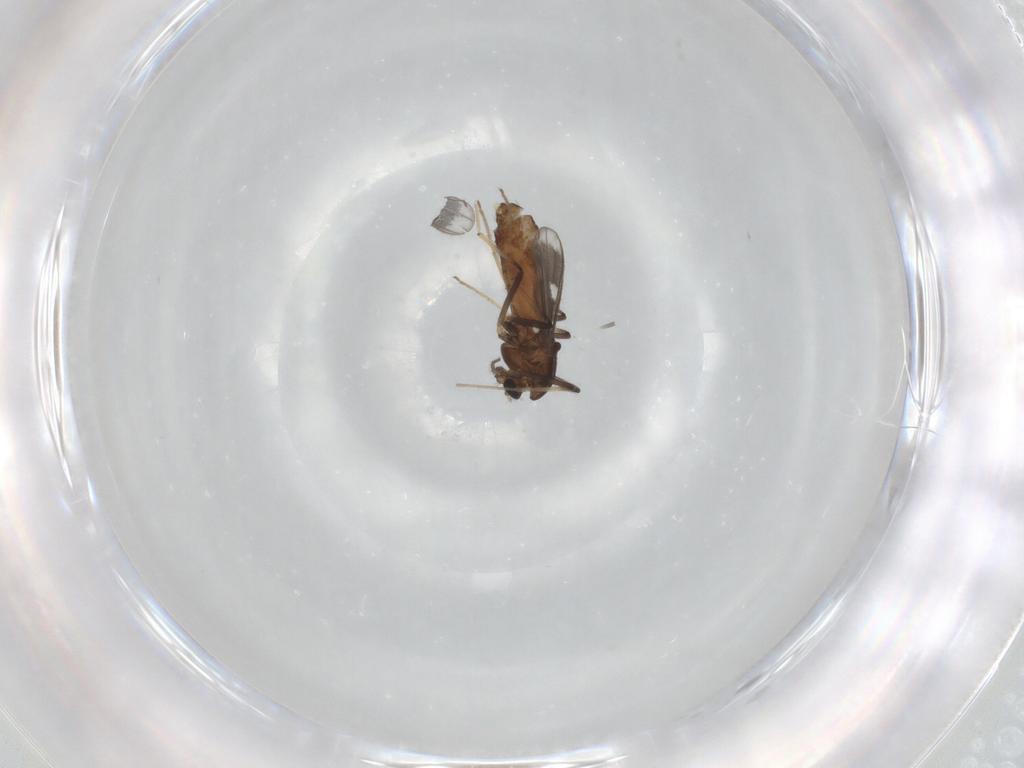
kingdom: Animalia
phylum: Arthropoda
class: Insecta
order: Diptera
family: Chironomidae
